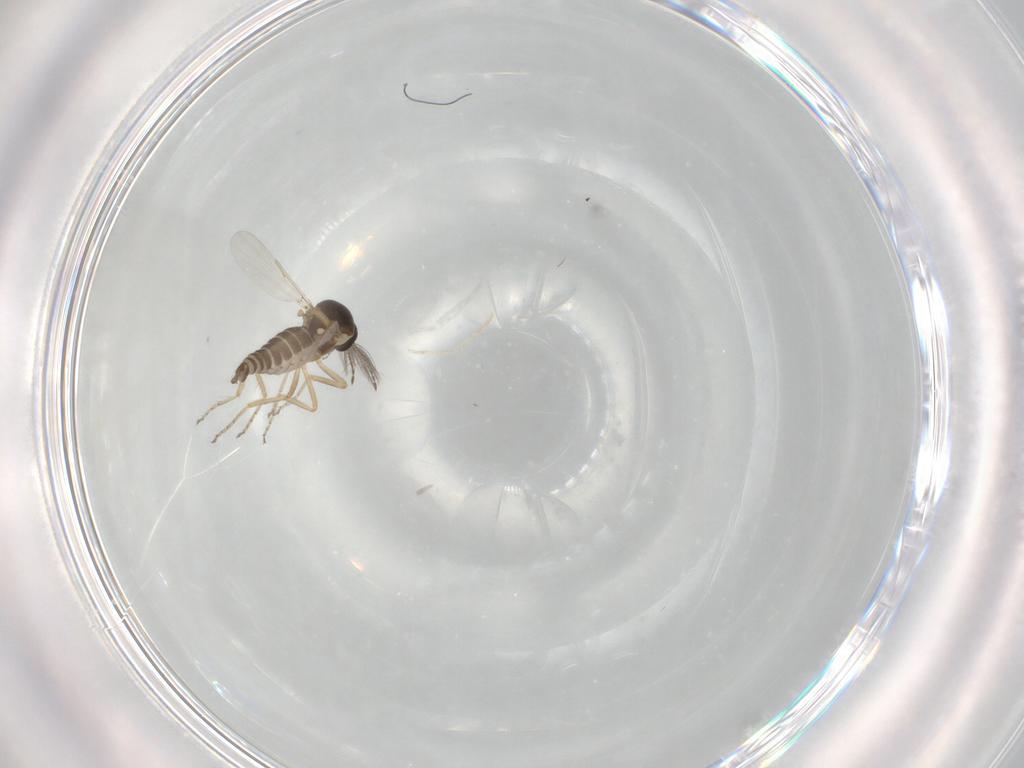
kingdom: Animalia
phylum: Arthropoda
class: Insecta
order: Diptera
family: Ceratopogonidae
